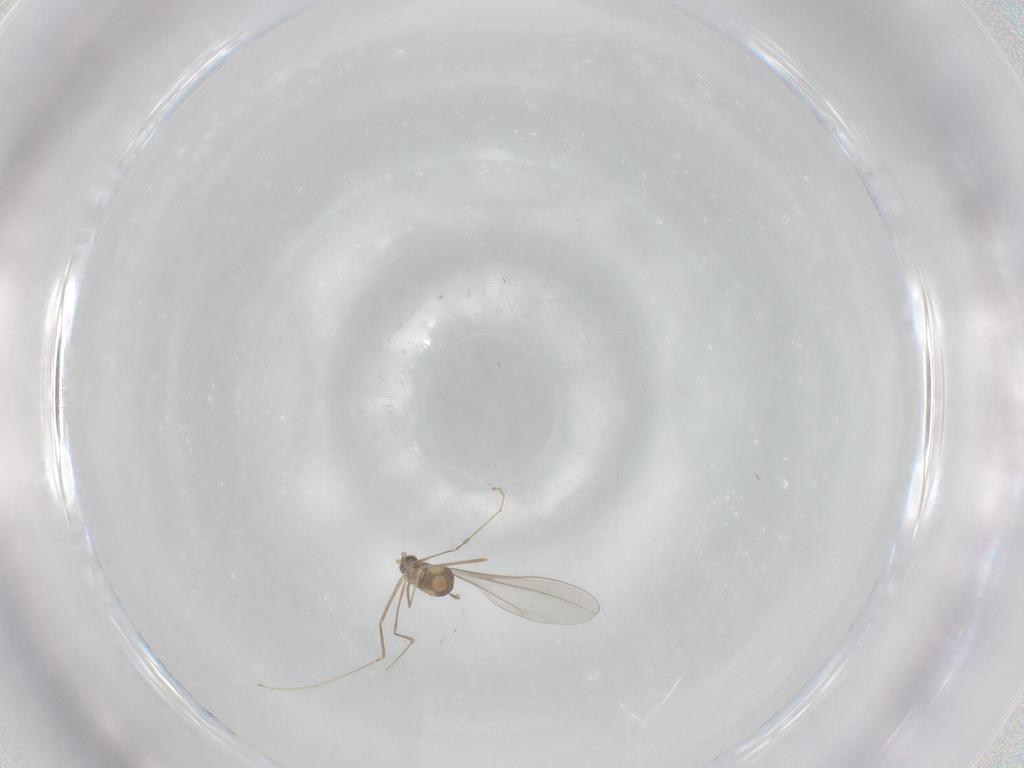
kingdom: Animalia
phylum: Arthropoda
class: Insecta
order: Diptera
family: Cecidomyiidae
